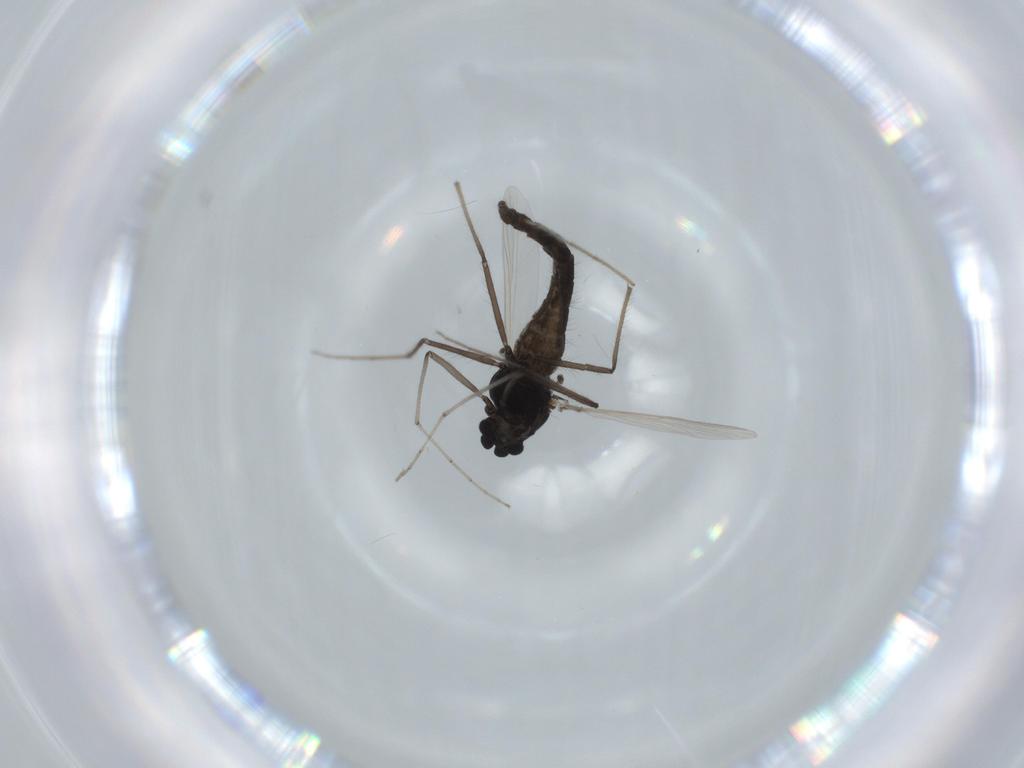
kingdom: Animalia
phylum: Arthropoda
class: Insecta
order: Diptera
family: Chironomidae
